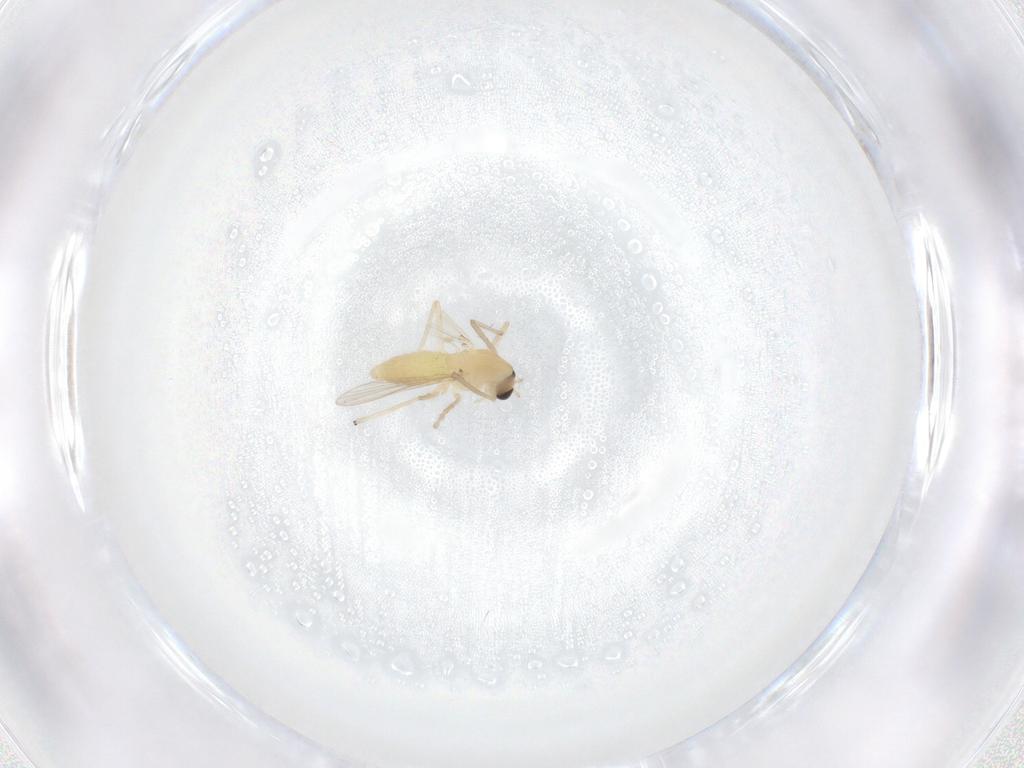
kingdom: Animalia
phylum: Arthropoda
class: Insecta
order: Diptera
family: Chironomidae
